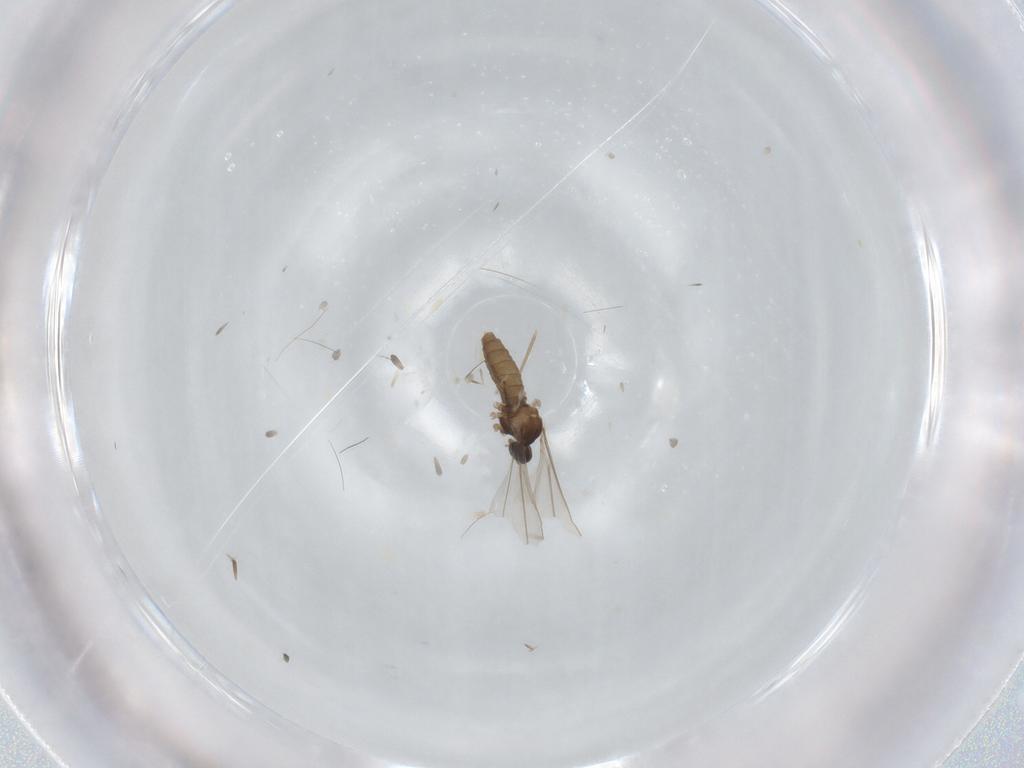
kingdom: Animalia
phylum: Arthropoda
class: Insecta
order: Diptera
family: Cecidomyiidae
